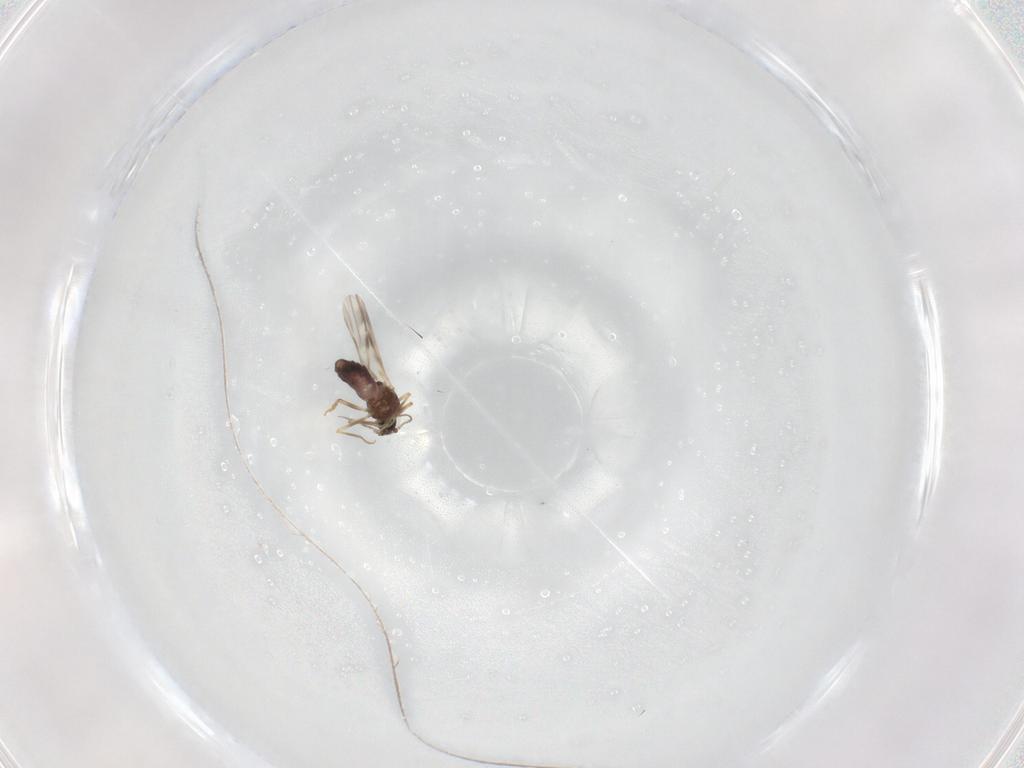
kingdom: Animalia
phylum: Arthropoda
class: Insecta
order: Diptera
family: Ceratopogonidae
